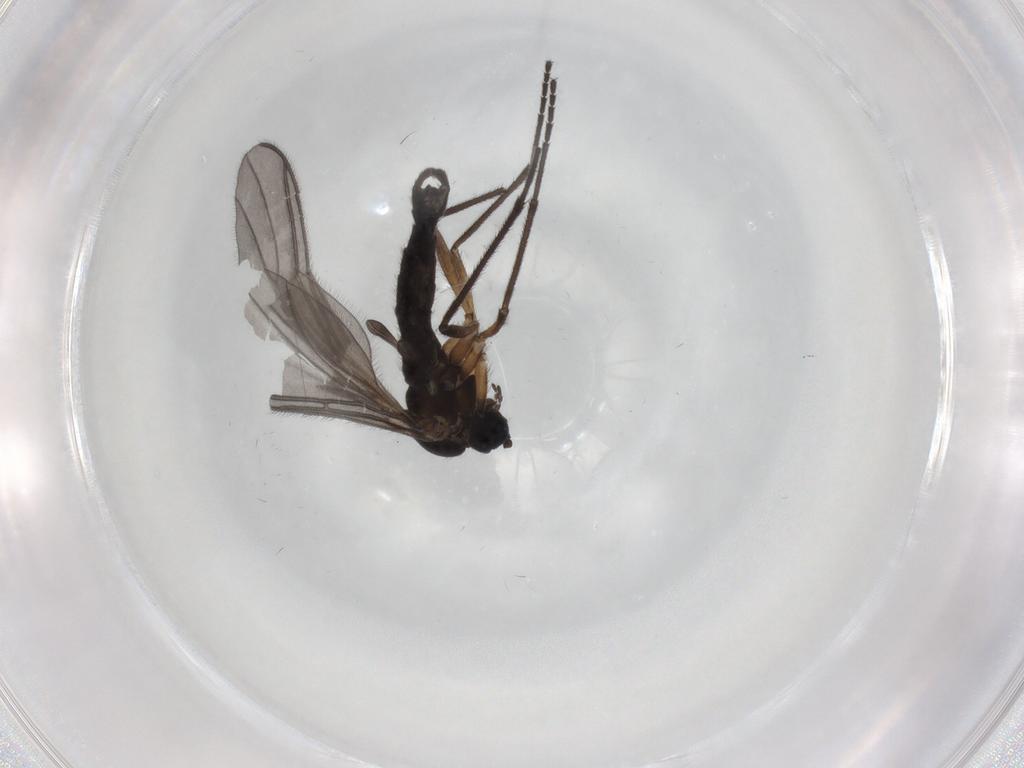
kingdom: Animalia
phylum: Arthropoda
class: Insecta
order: Diptera
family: Sciaridae
